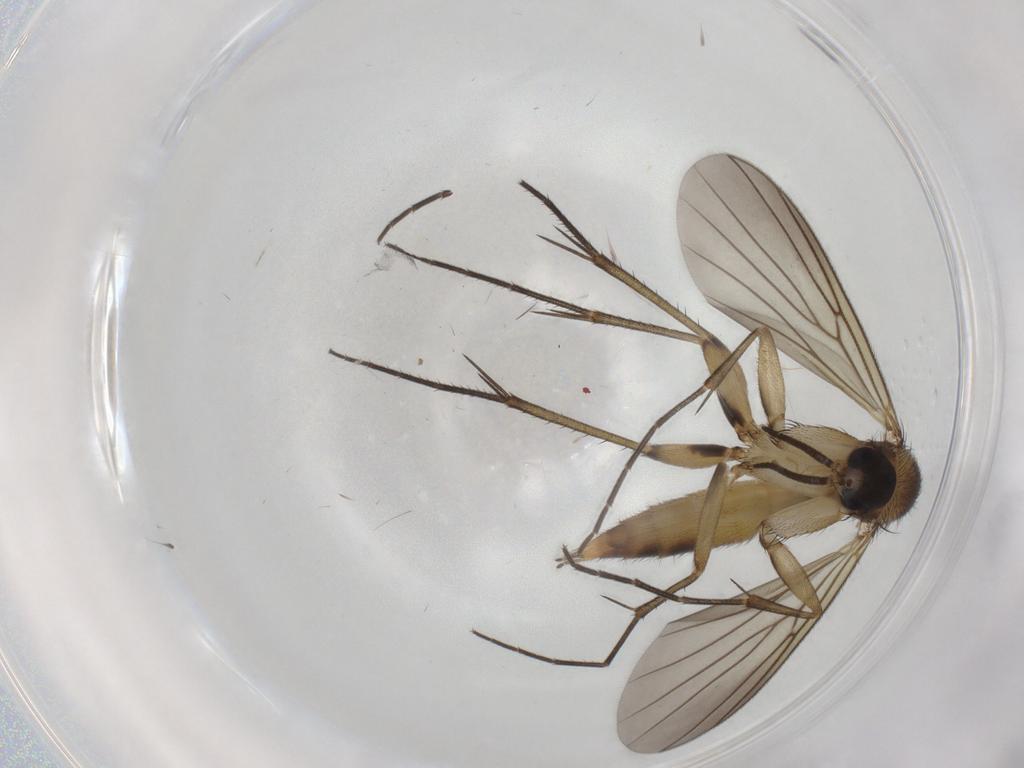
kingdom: Animalia
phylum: Arthropoda
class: Insecta
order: Diptera
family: Mycetophilidae
